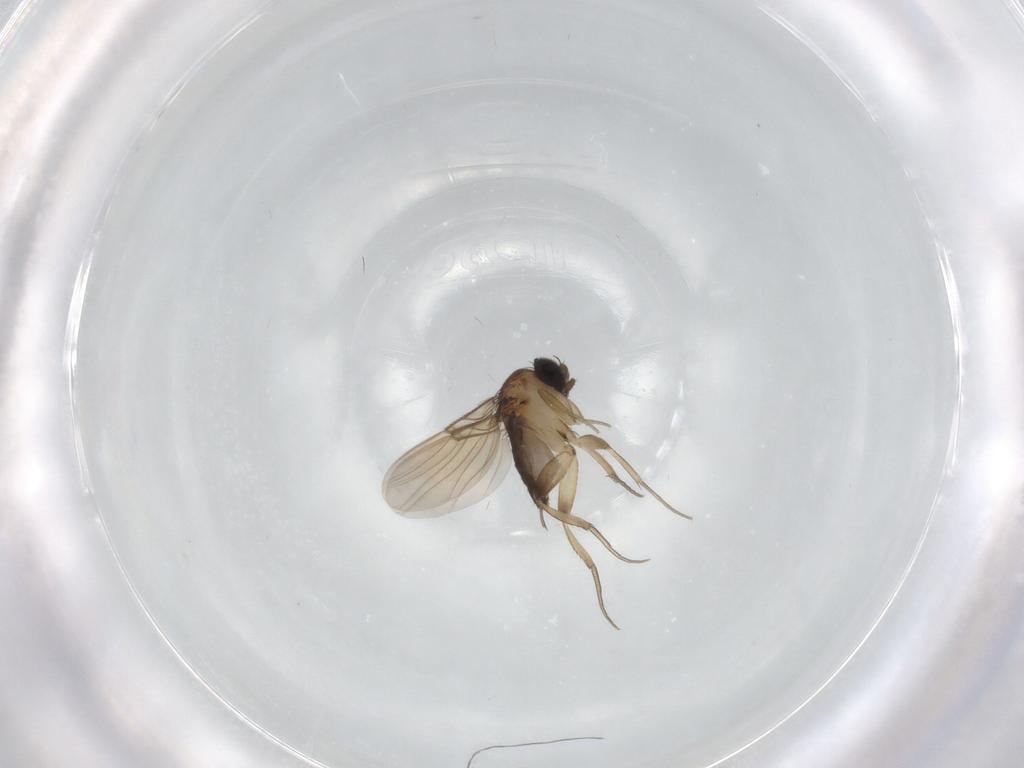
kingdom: Animalia
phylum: Arthropoda
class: Insecta
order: Diptera
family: Phoridae
